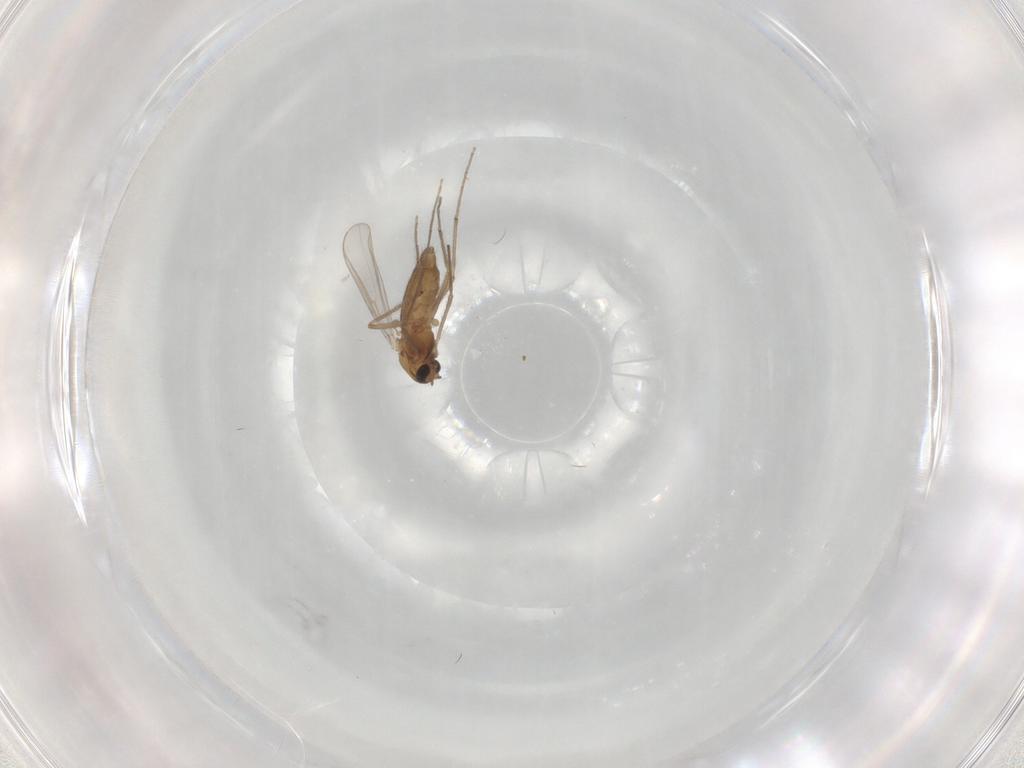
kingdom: Animalia
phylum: Arthropoda
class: Insecta
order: Diptera
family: Chironomidae
